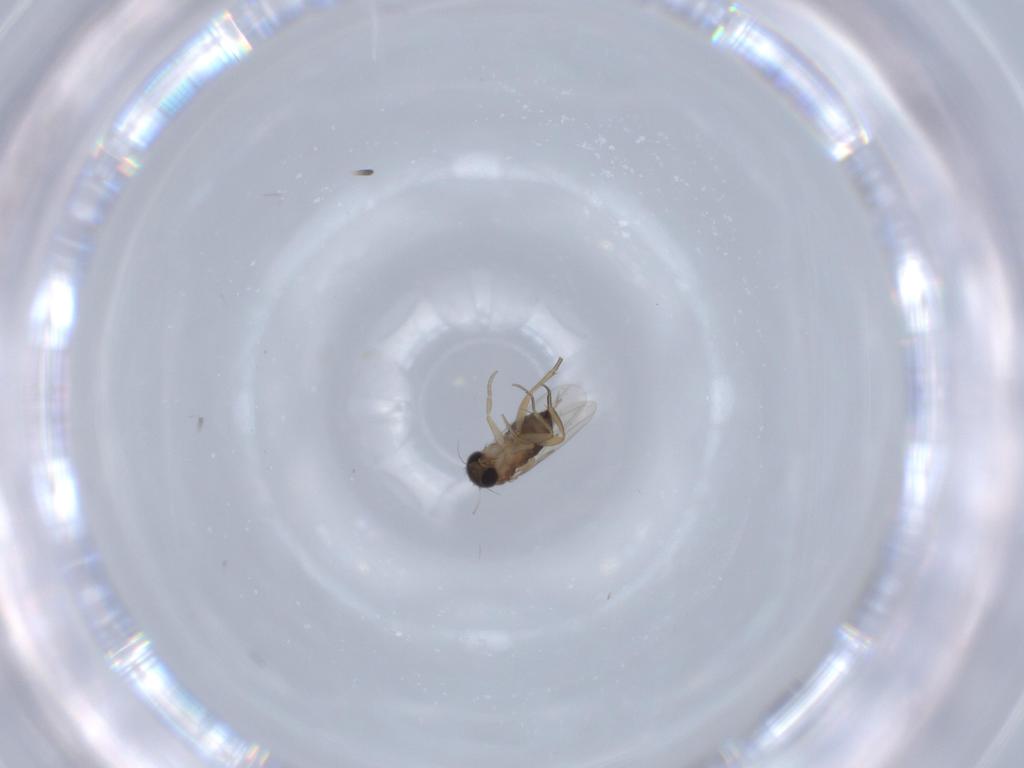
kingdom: Animalia
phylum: Arthropoda
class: Insecta
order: Diptera
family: Phoridae
